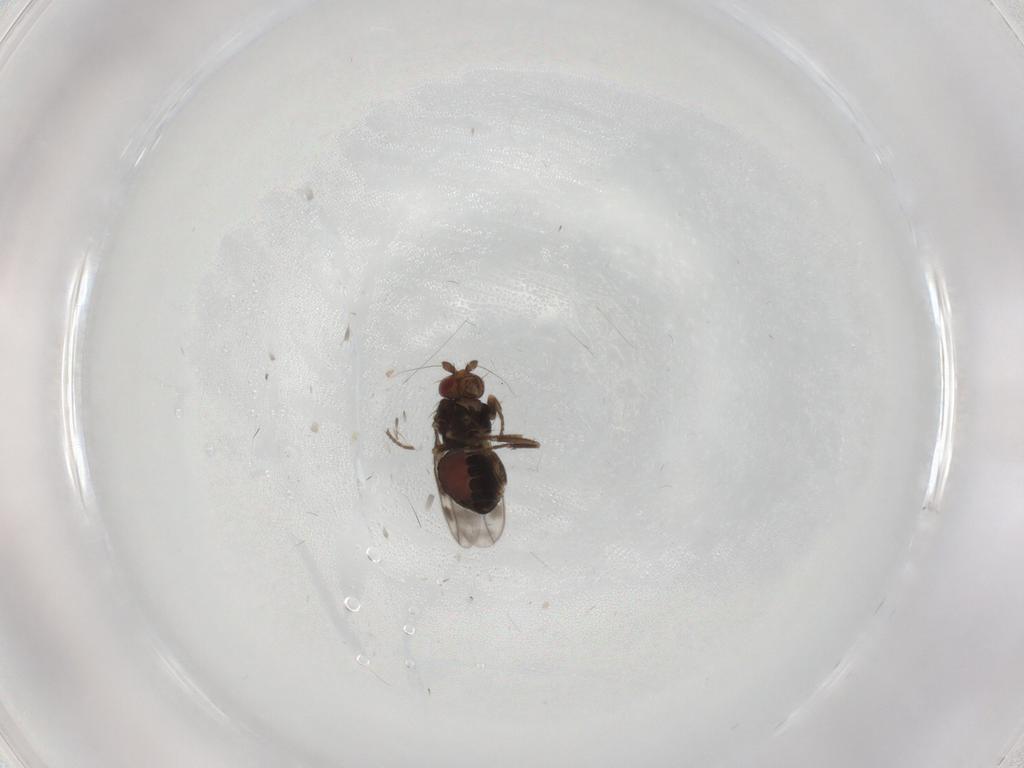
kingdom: Animalia
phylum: Arthropoda
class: Insecta
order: Diptera
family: Sphaeroceridae
